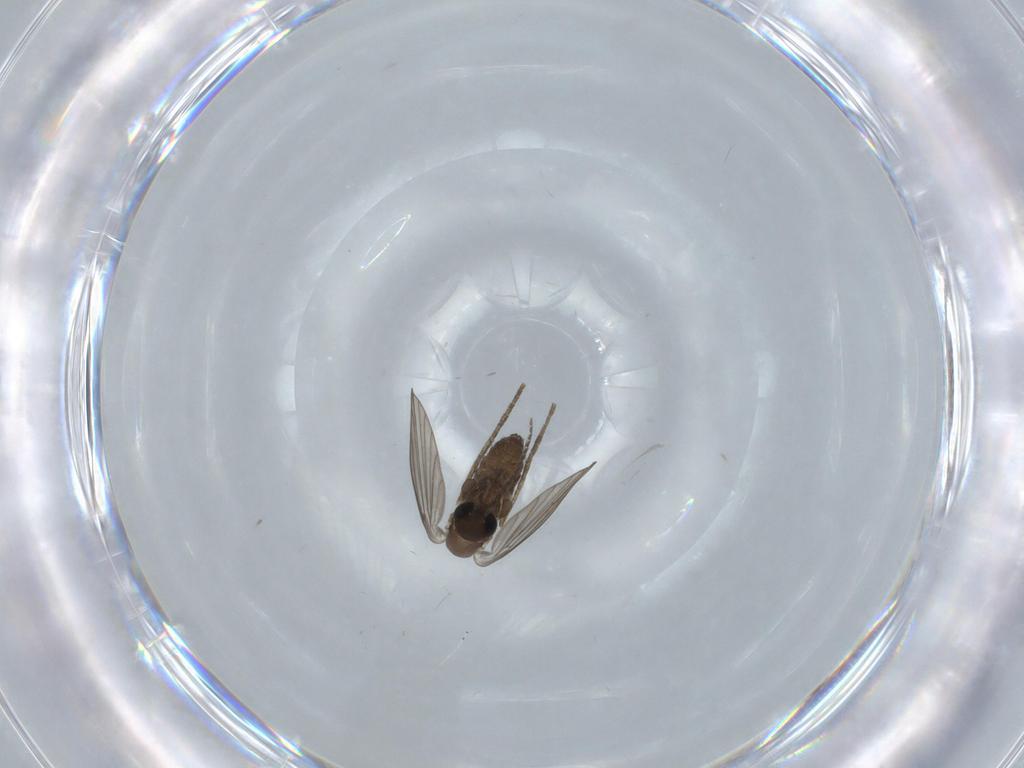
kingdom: Animalia
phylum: Arthropoda
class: Insecta
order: Diptera
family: Psychodidae
